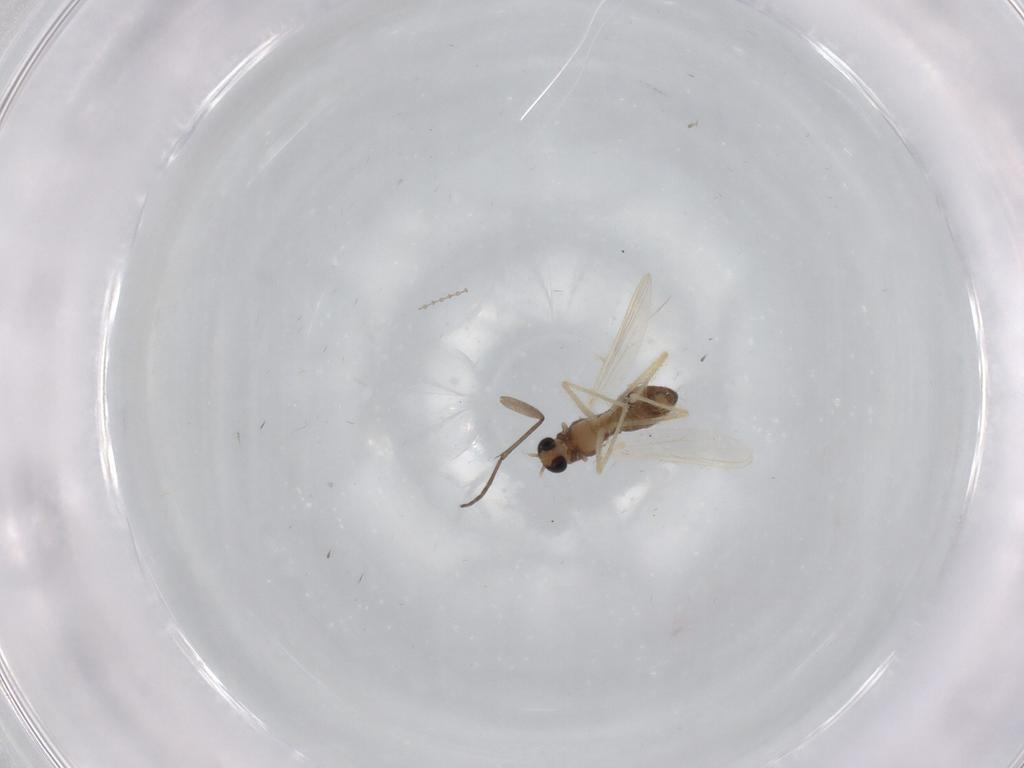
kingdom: Animalia
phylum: Arthropoda
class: Insecta
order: Diptera
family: Chironomidae
